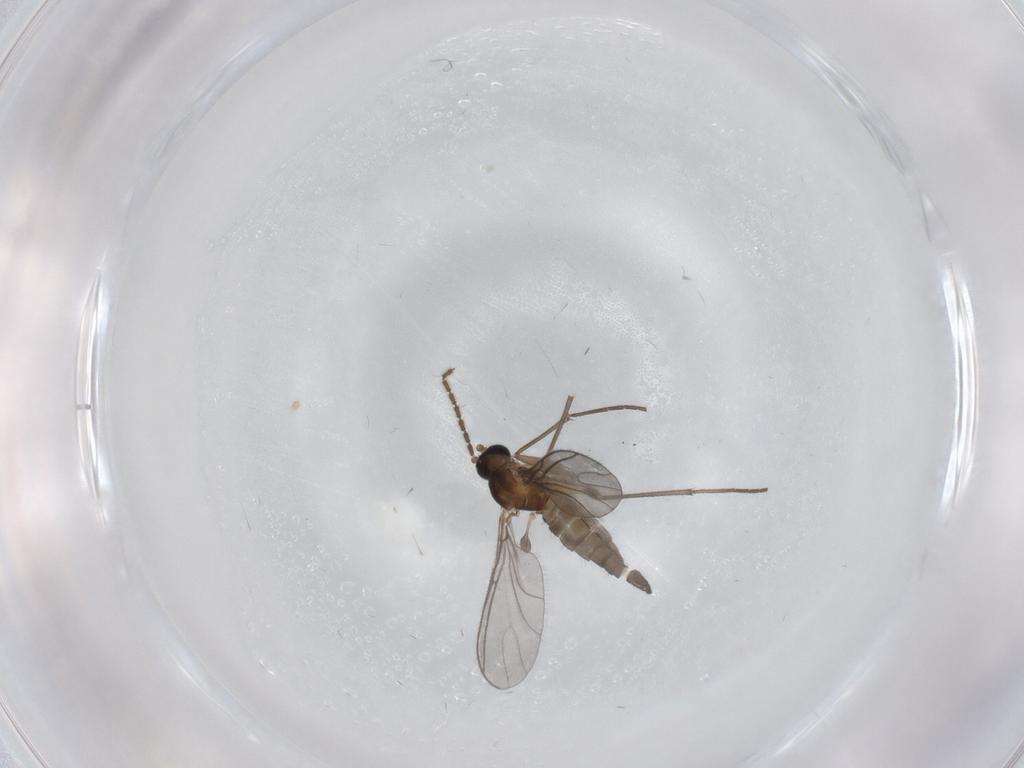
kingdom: Animalia
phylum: Arthropoda
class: Insecta
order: Diptera
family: Sciaridae
